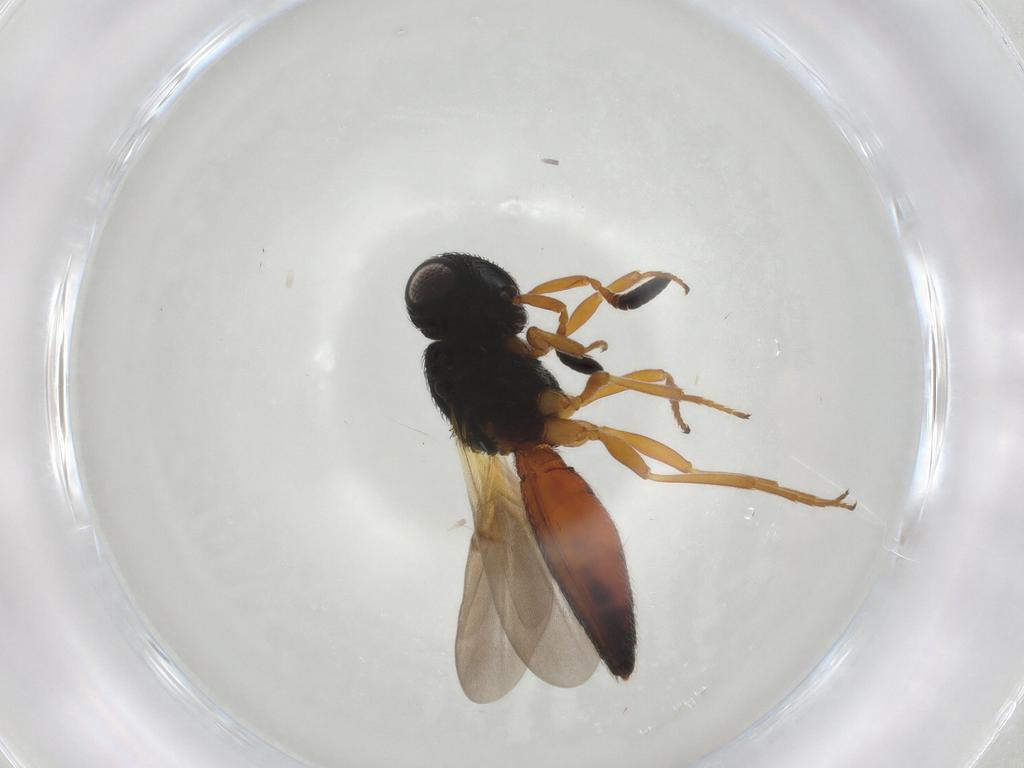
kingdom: Animalia
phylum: Arthropoda
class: Insecta
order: Hymenoptera
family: Scelionidae
